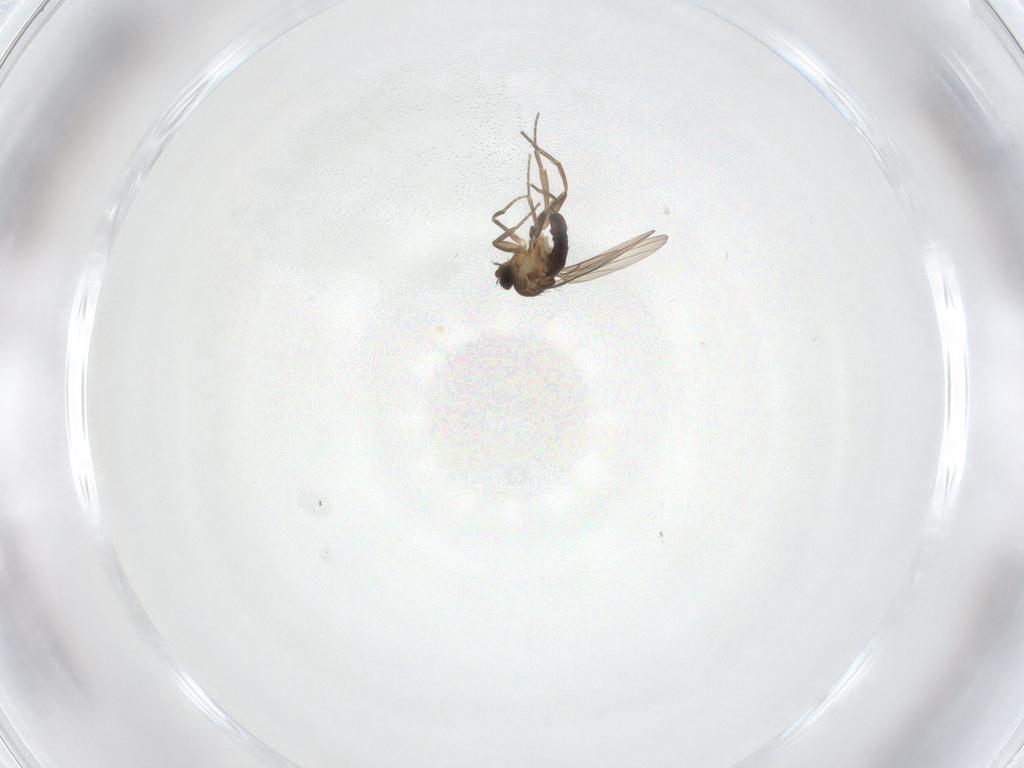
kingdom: Animalia
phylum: Arthropoda
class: Insecta
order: Diptera
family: Phoridae
